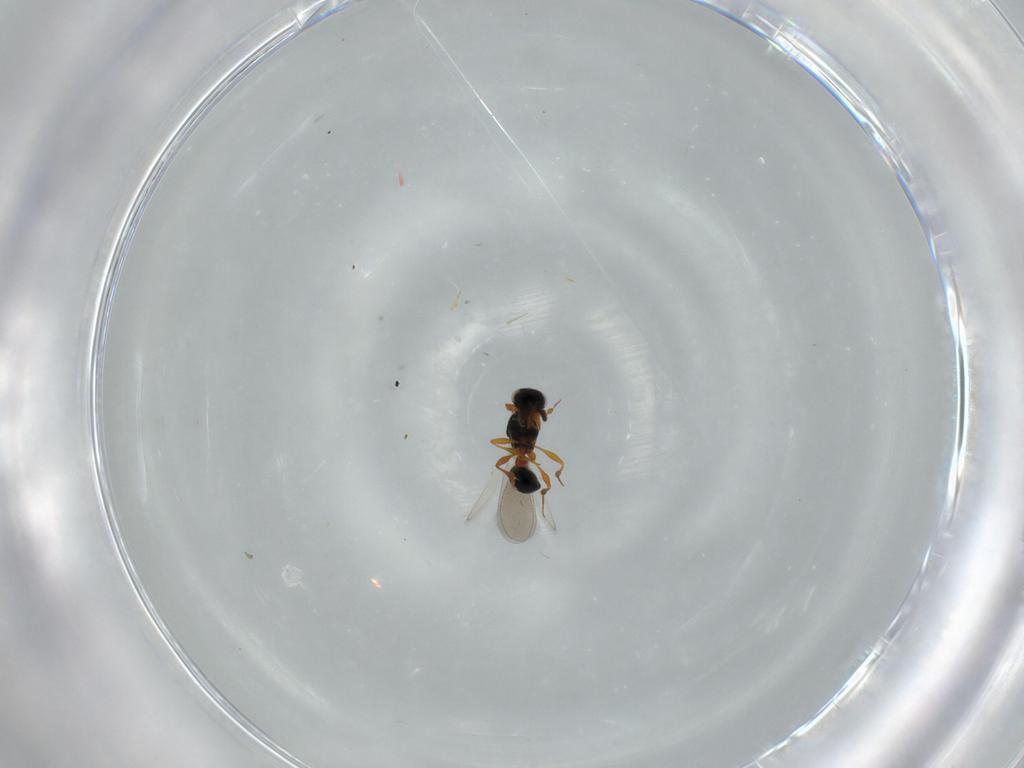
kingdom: Animalia
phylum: Arthropoda
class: Insecta
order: Hymenoptera
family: Platygastridae
